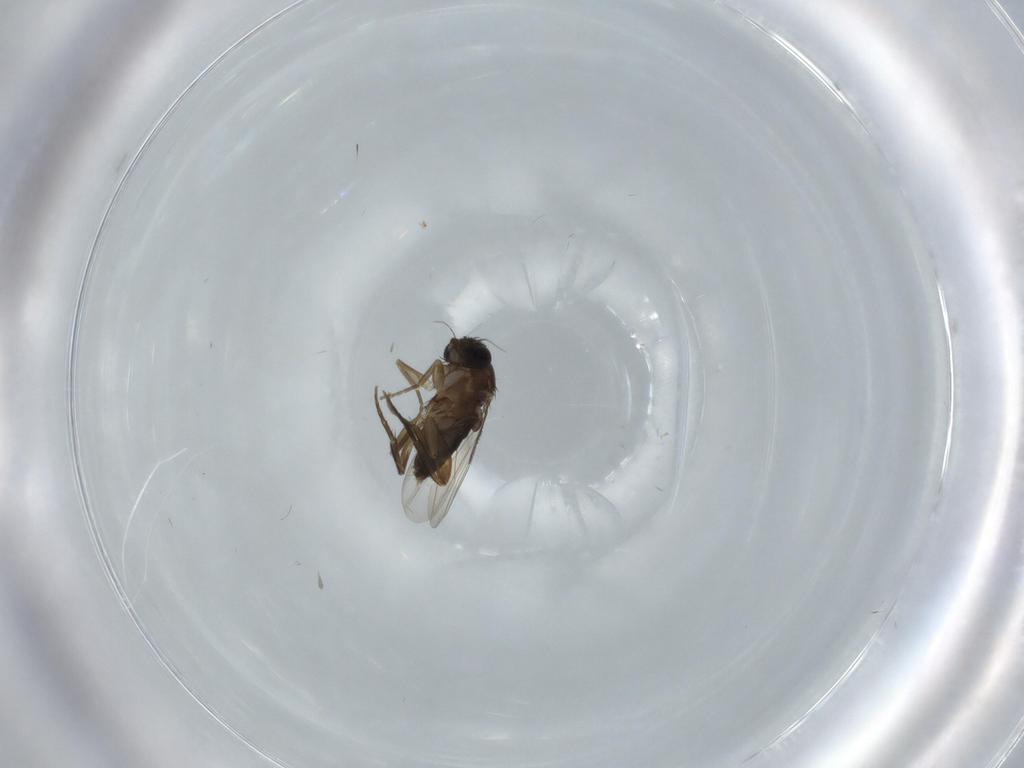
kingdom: Animalia
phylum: Arthropoda
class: Insecta
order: Diptera
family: Phoridae
